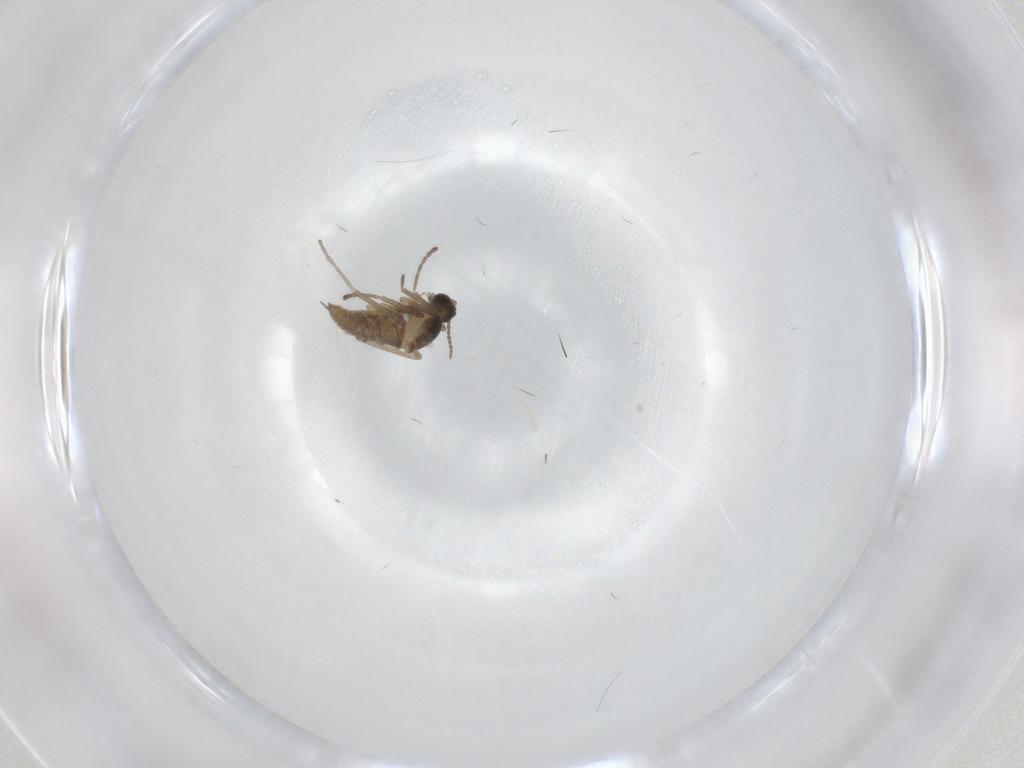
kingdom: Animalia
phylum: Arthropoda
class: Insecta
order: Diptera
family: Cecidomyiidae
